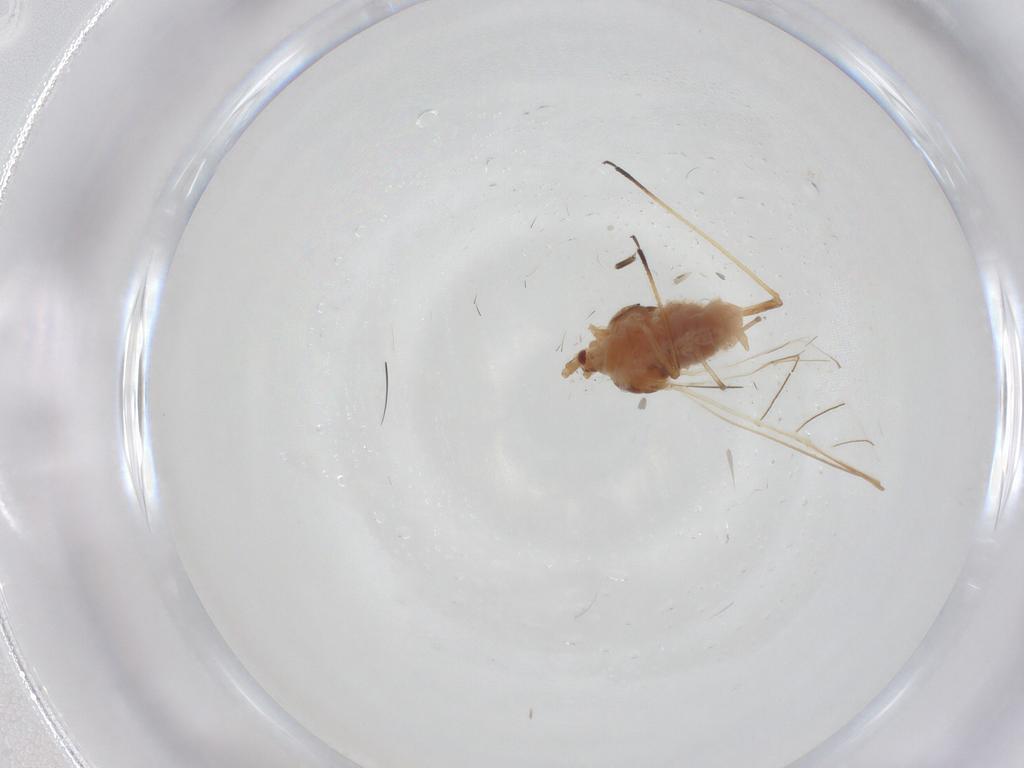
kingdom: Animalia
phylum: Arthropoda
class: Insecta
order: Hemiptera
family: Aphididae
